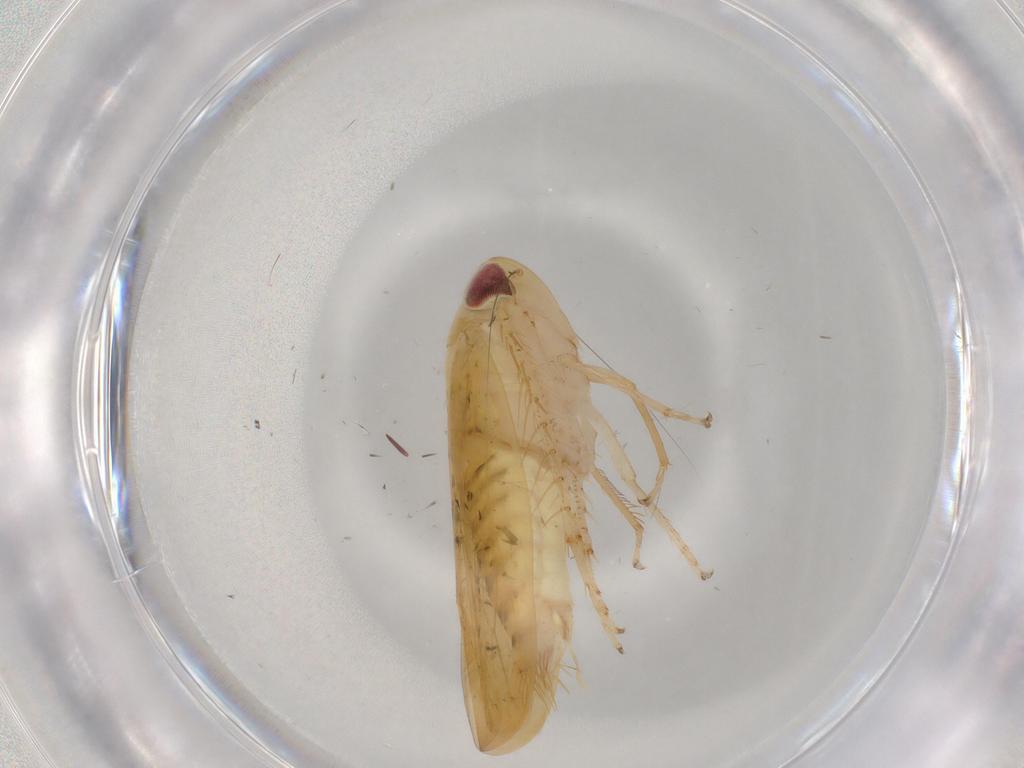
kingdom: Animalia
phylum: Arthropoda
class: Insecta
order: Hemiptera
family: Cicadellidae
